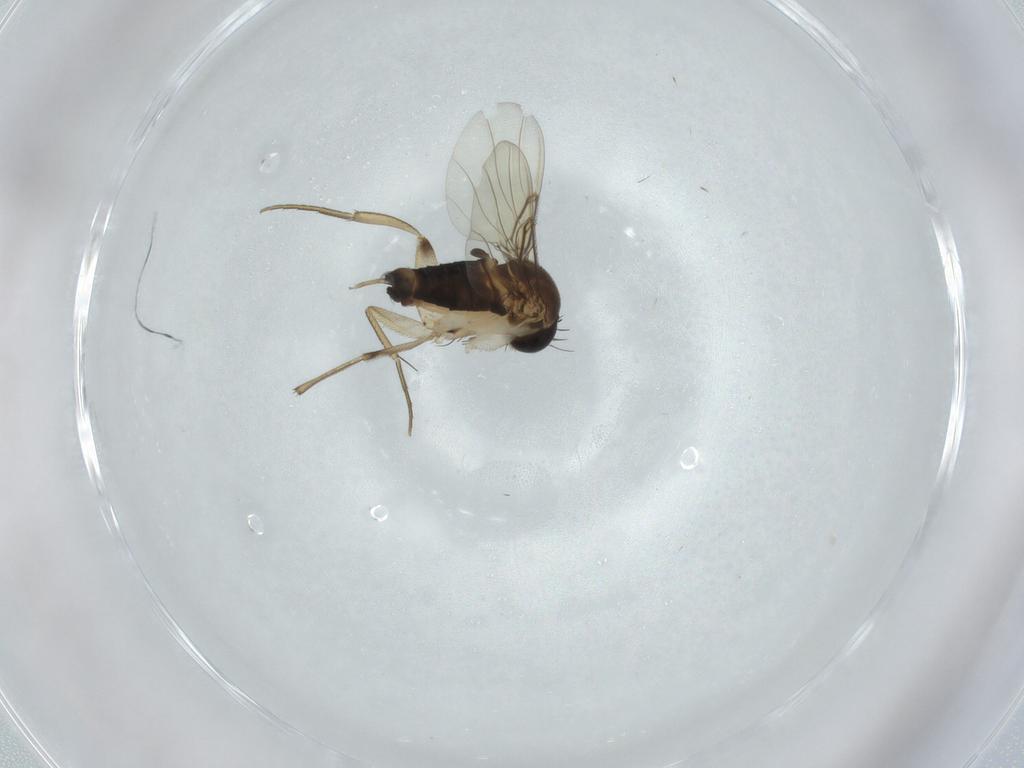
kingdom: Animalia
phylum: Arthropoda
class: Insecta
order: Diptera
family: Phoridae
